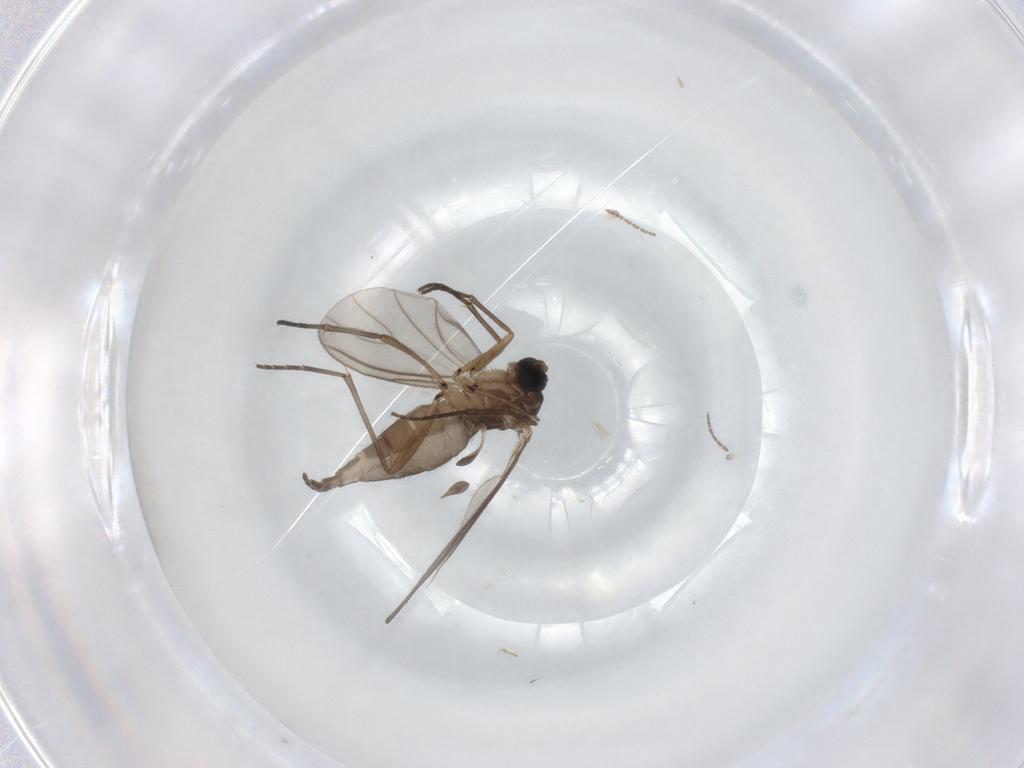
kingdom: Animalia
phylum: Arthropoda
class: Insecta
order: Diptera
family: Sciaridae
